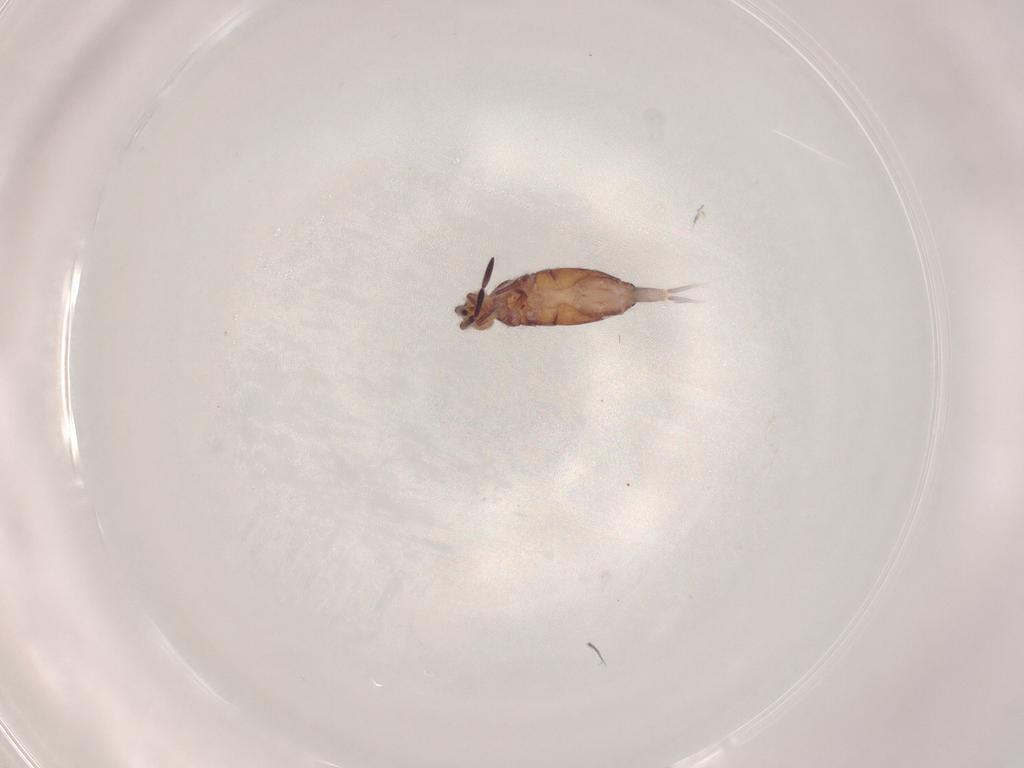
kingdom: Animalia
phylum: Arthropoda
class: Collembola
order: Entomobryomorpha
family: Entomobryidae
